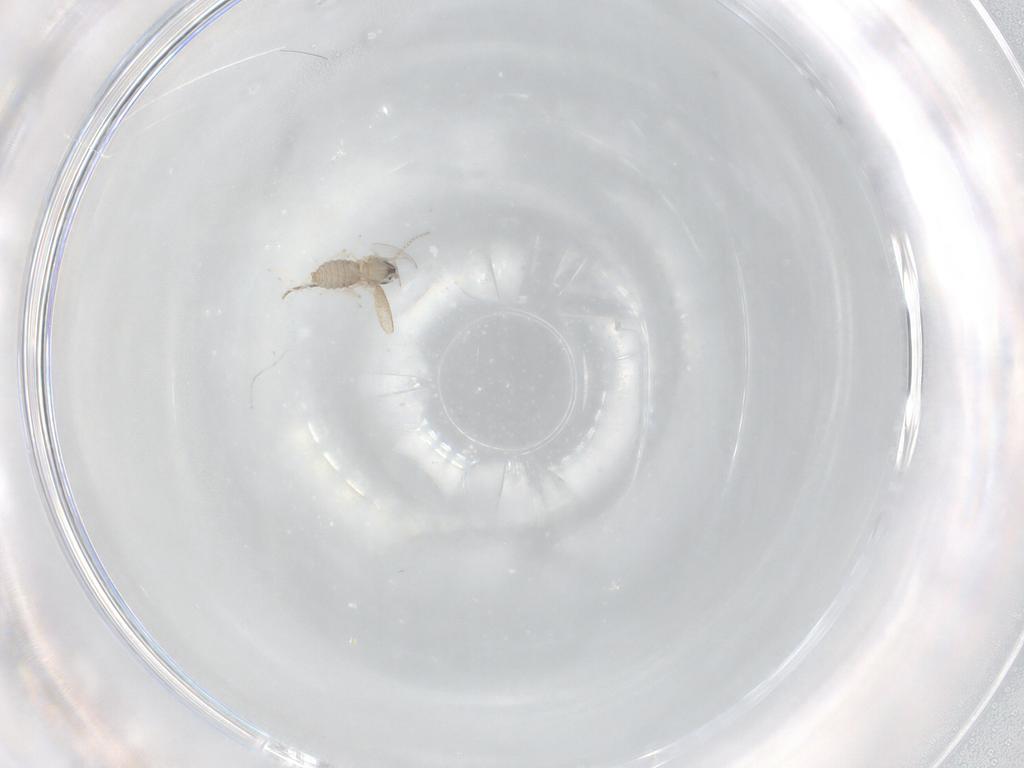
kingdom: Animalia
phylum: Arthropoda
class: Insecta
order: Diptera
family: Cecidomyiidae
